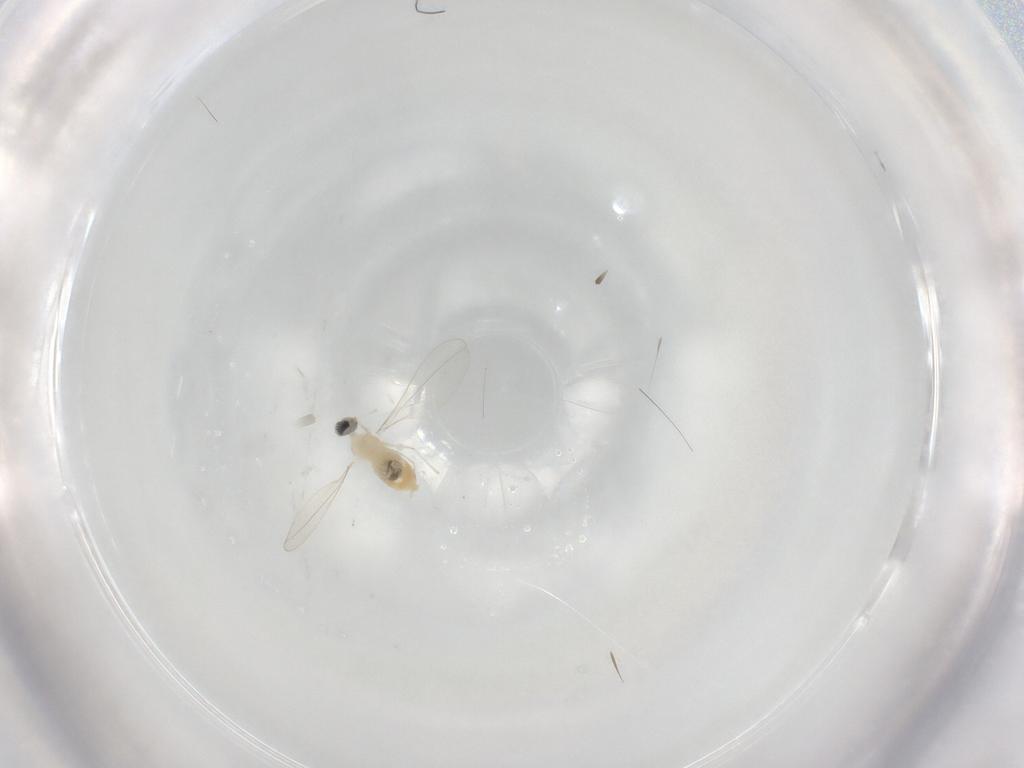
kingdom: Animalia
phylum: Arthropoda
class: Insecta
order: Diptera
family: Cecidomyiidae
